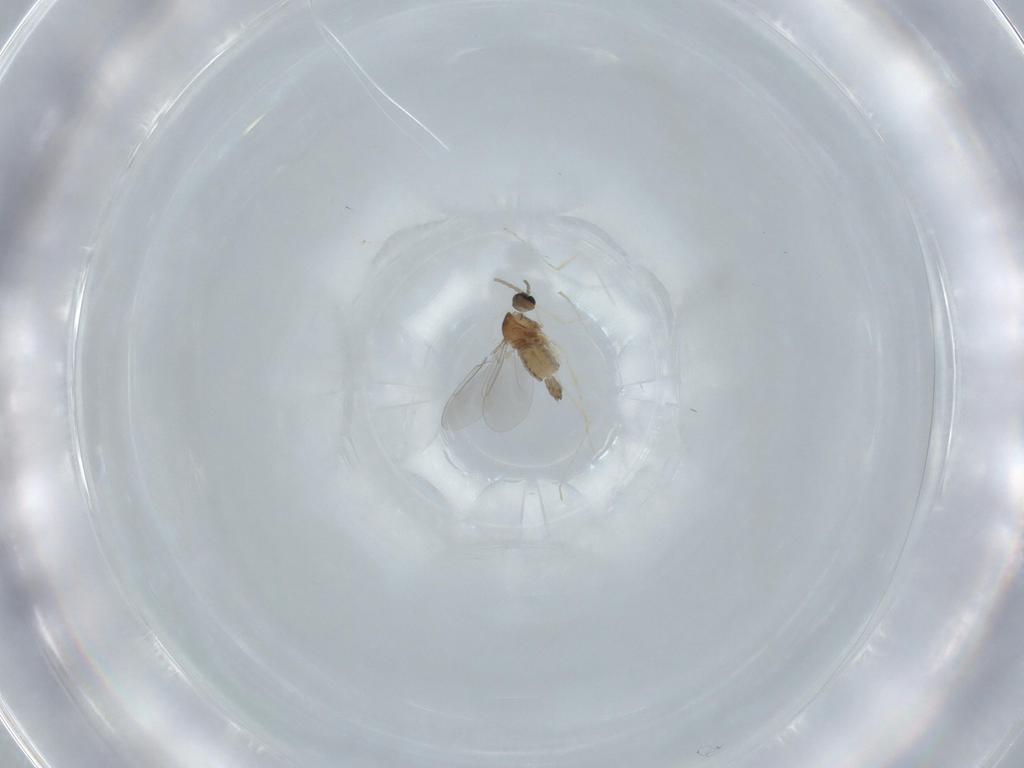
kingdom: Animalia
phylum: Arthropoda
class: Insecta
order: Diptera
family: Cecidomyiidae
